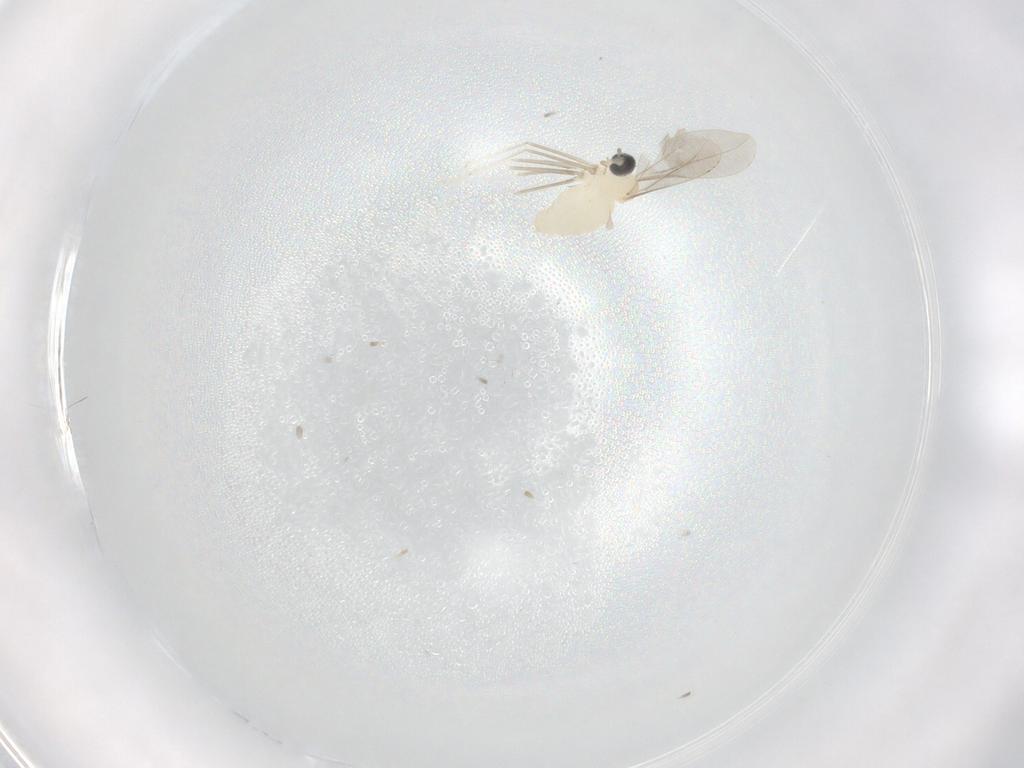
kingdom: Animalia
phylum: Arthropoda
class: Insecta
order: Diptera
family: Cecidomyiidae
